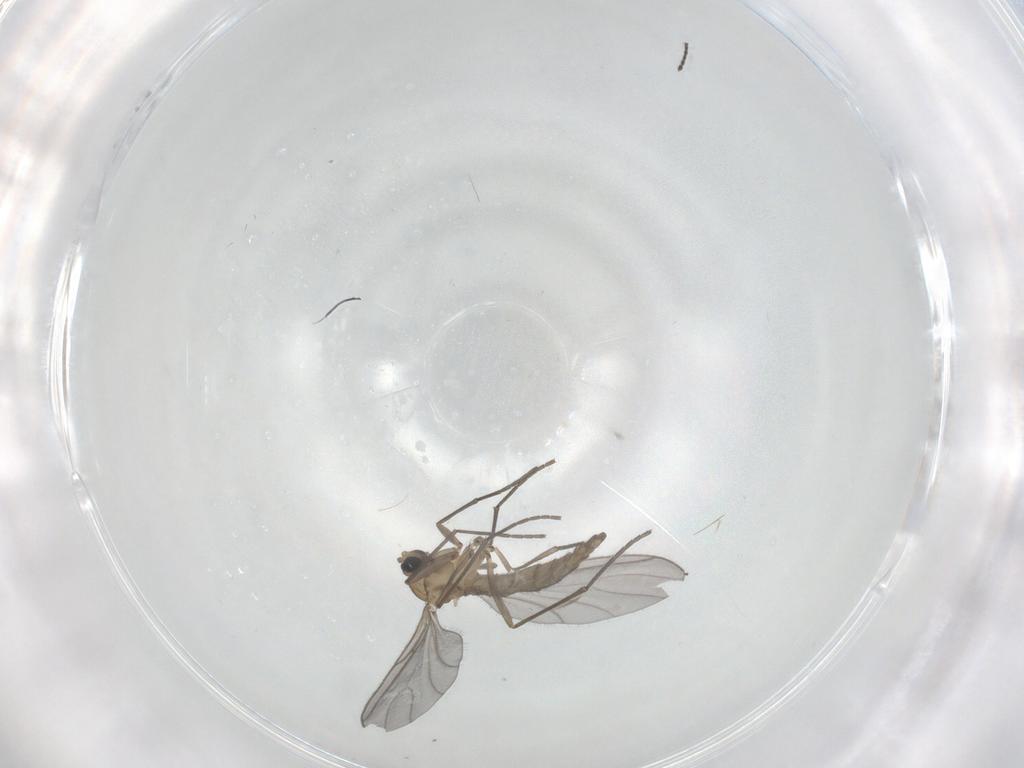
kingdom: Animalia
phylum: Arthropoda
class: Insecta
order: Diptera
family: Sciaridae
